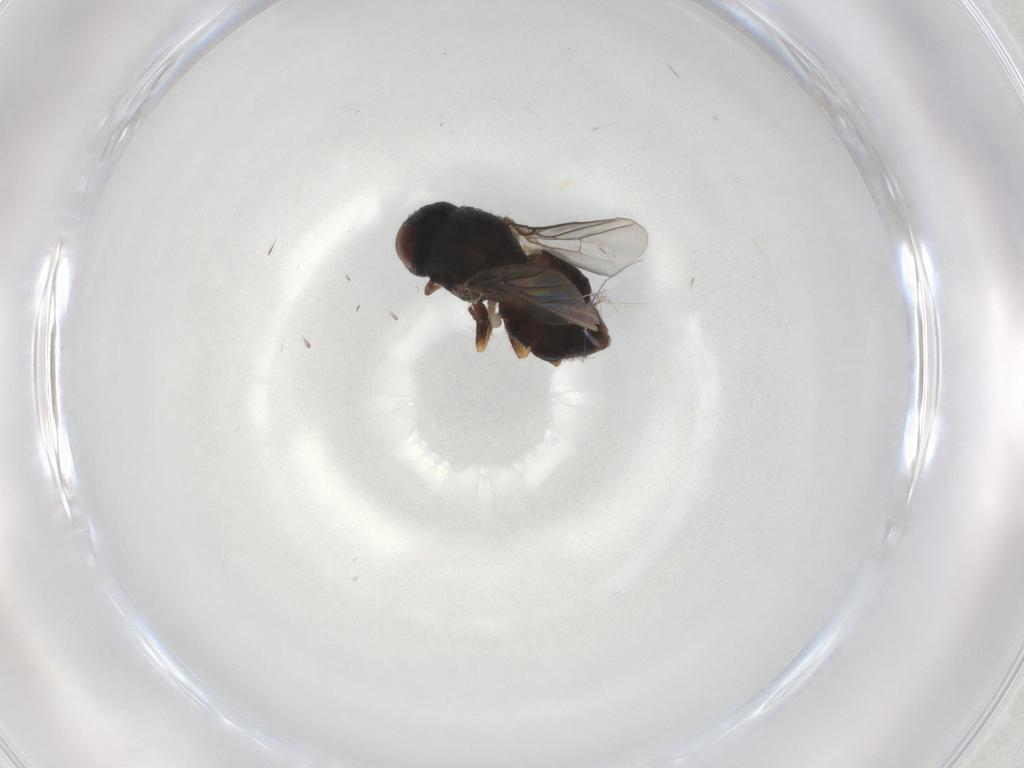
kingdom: Animalia
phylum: Arthropoda
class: Insecta
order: Diptera
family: Chloropidae
